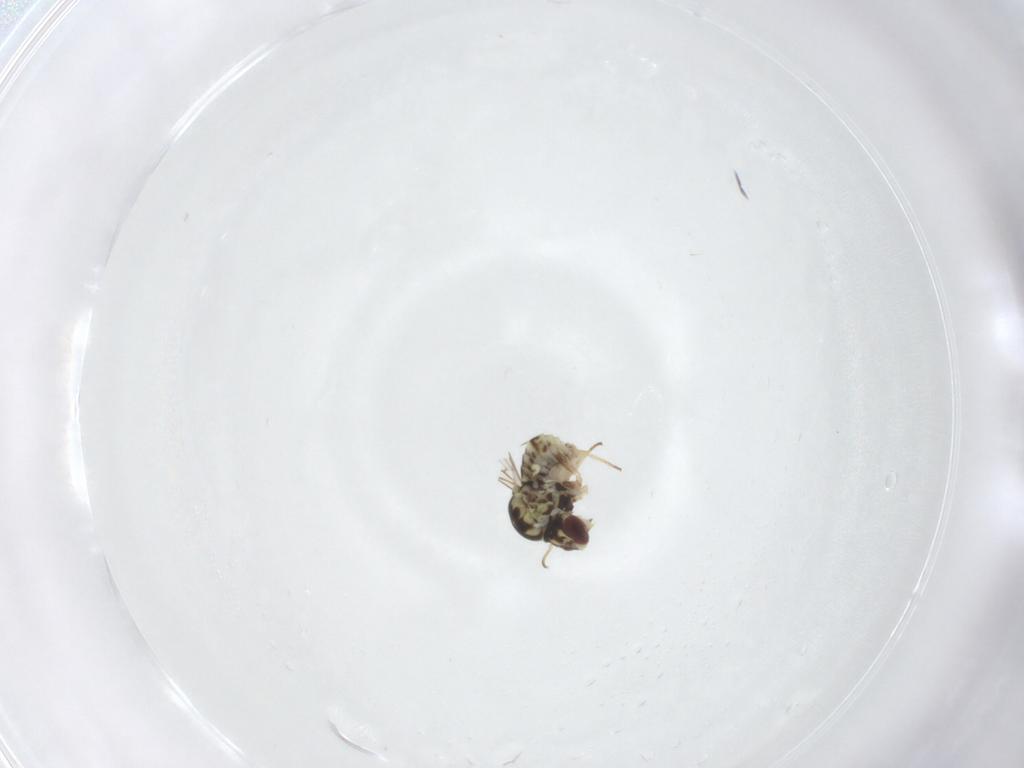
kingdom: Animalia
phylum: Arthropoda
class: Insecta
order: Diptera
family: Bombyliidae
